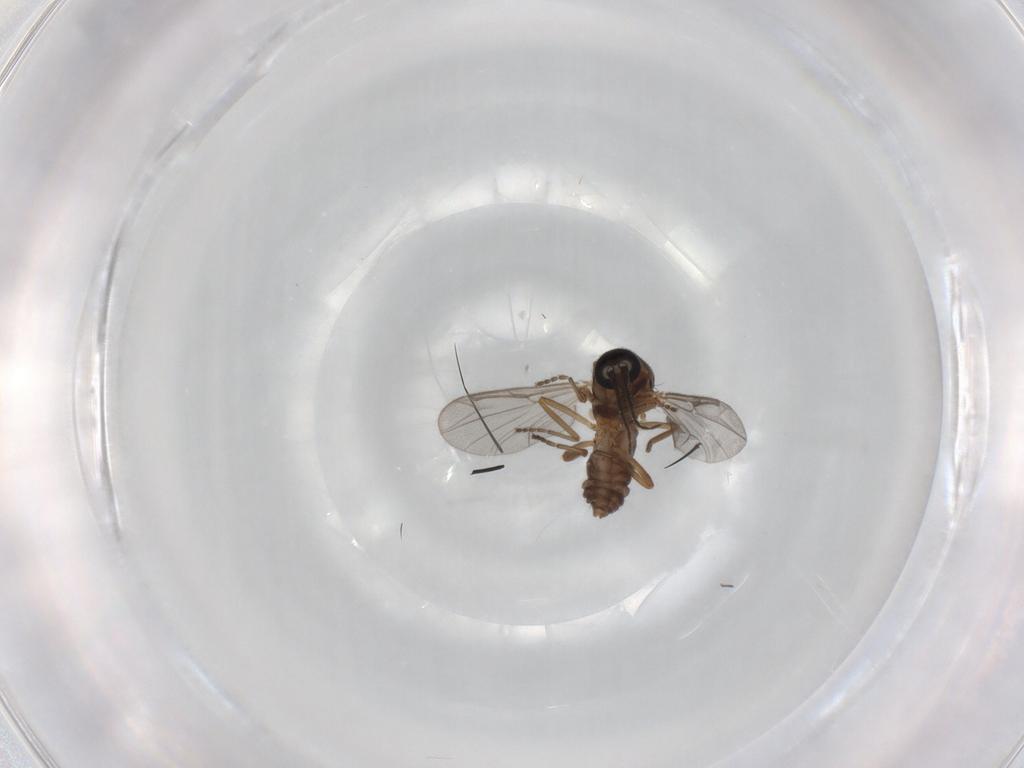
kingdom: Animalia
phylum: Arthropoda
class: Insecta
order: Diptera
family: Ceratopogonidae
